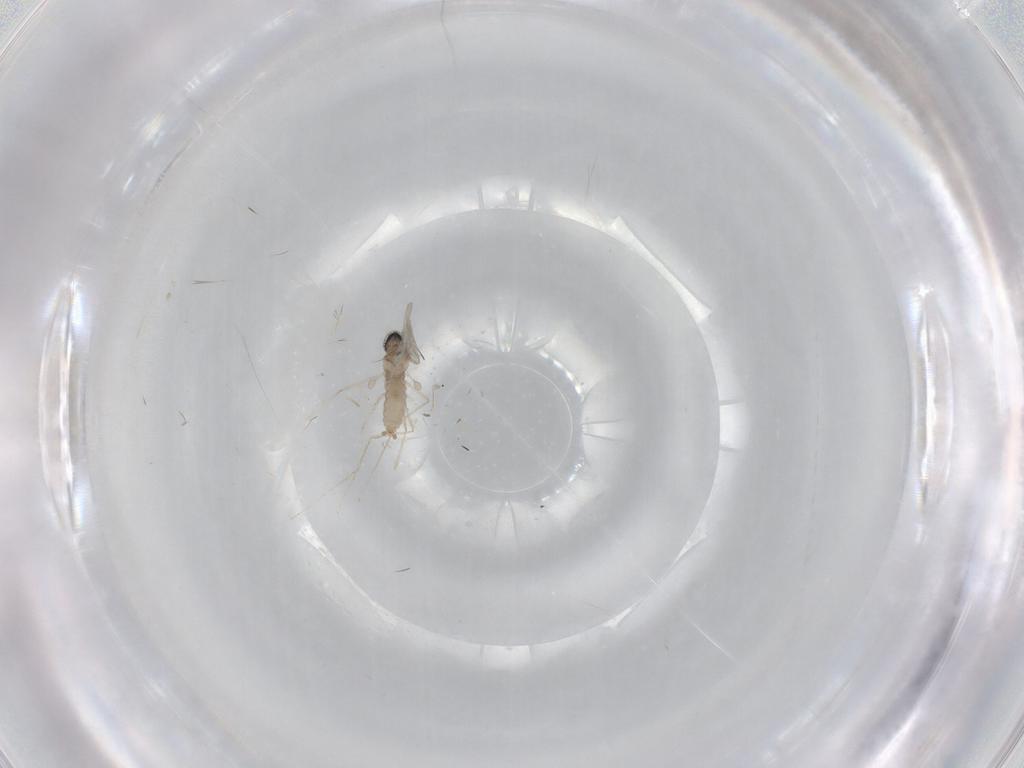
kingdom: Animalia
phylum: Arthropoda
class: Insecta
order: Diptera
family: Cecidomyiidae
